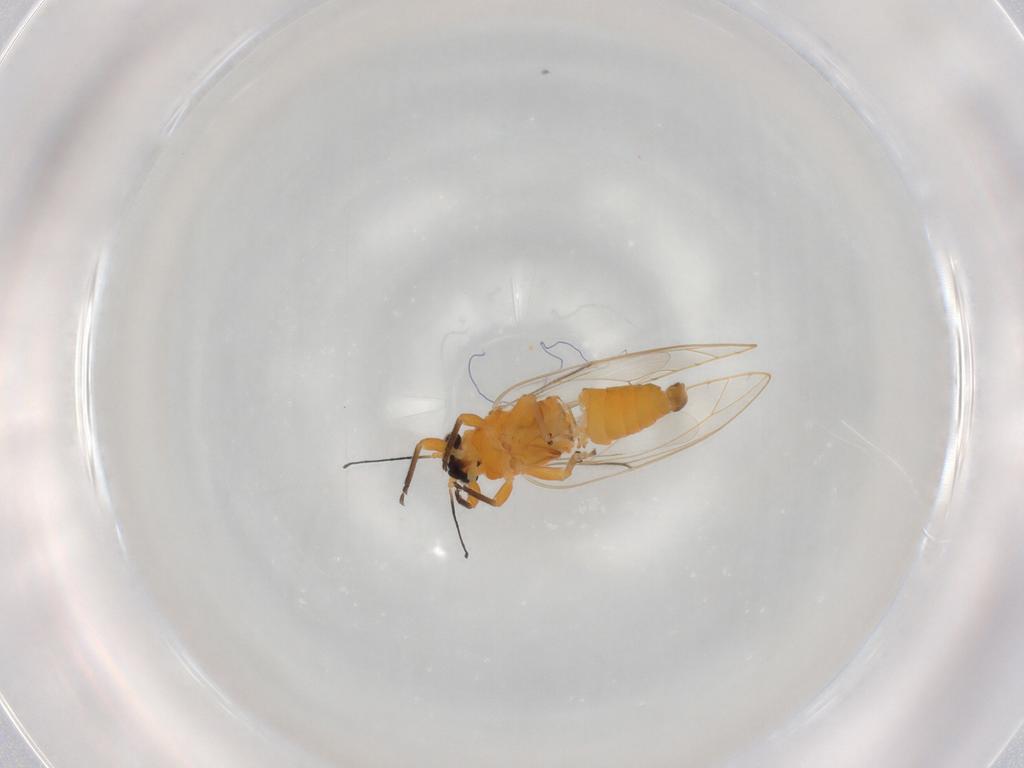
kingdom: Animalia
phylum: Arthropoda
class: Insecta
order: Hemiptera
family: Triozidae
